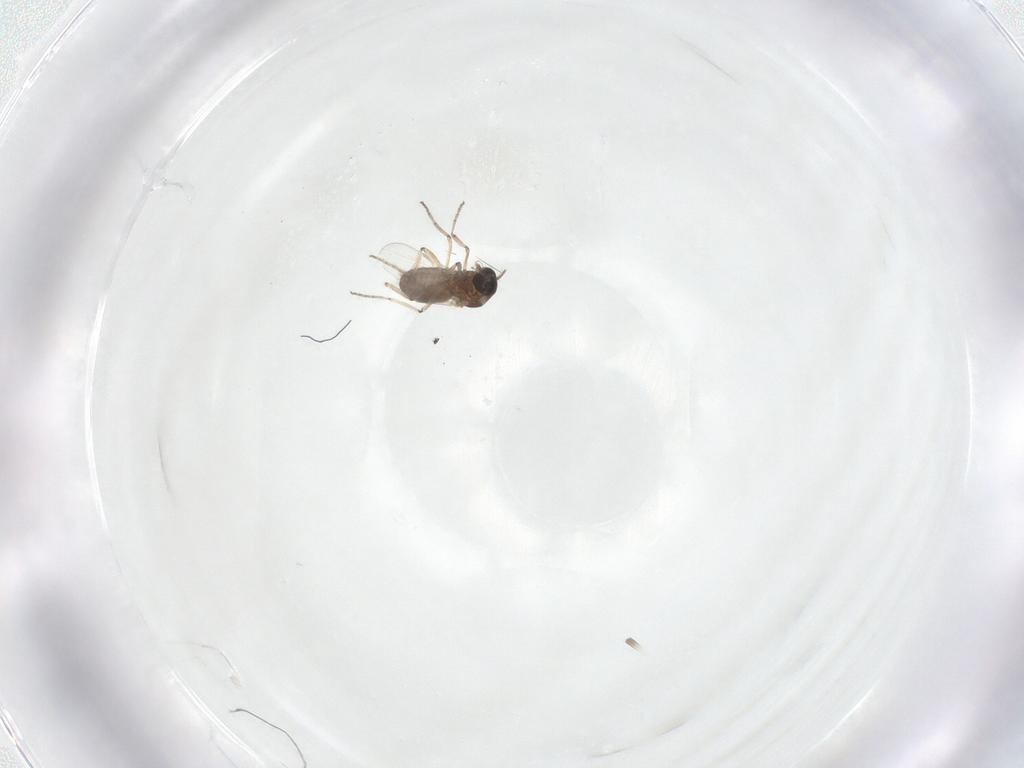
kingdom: Animalia
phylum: Arthropoda
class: Insecta
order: Diptera
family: Ceratopogonidae
